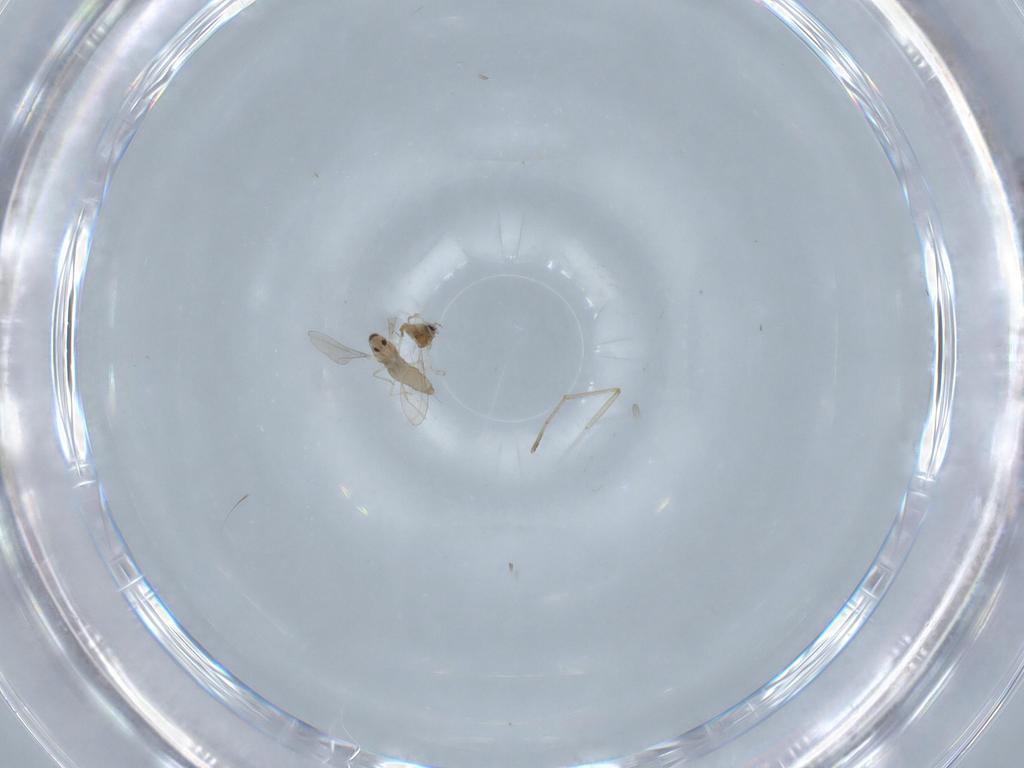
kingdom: Animalia
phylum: Arthropoda
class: Insecta
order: Diptera
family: Cecidomyiidae
